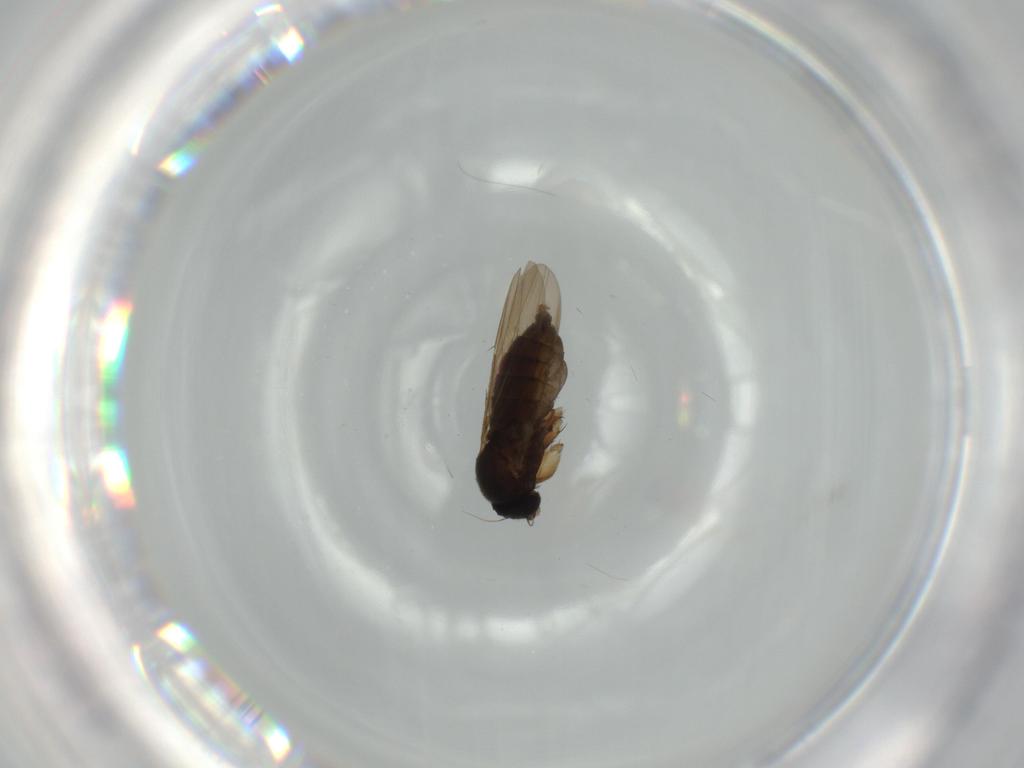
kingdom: Animalia
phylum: Arthropoda
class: Insecta
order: Diptera
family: Phoridae
